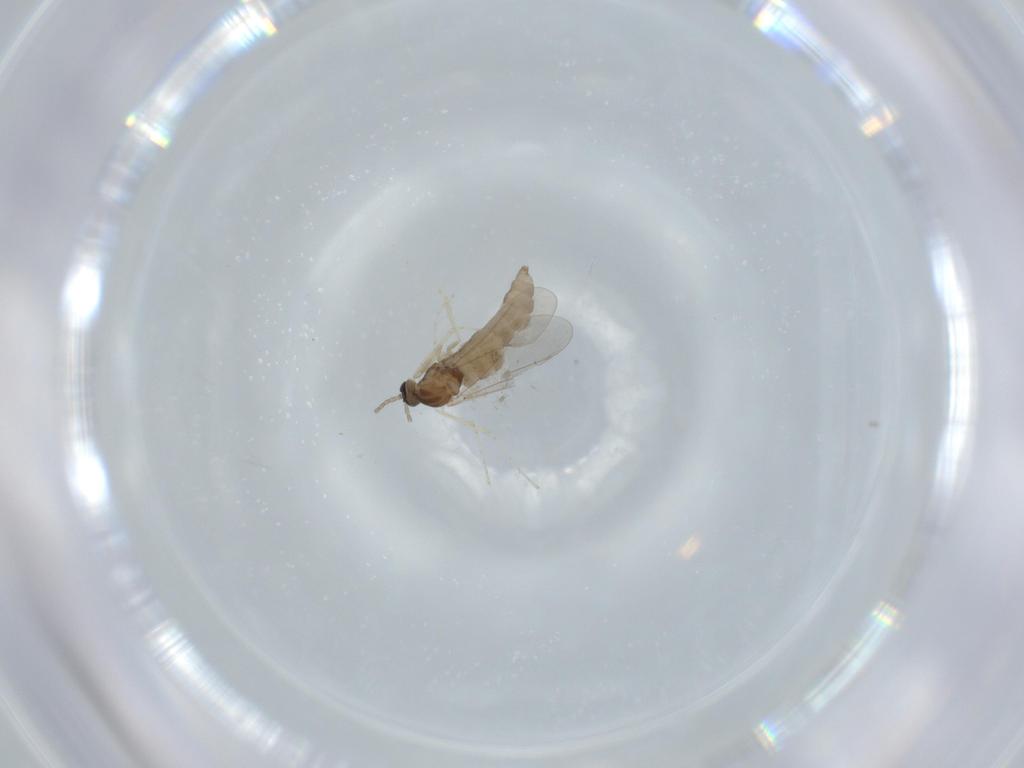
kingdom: Animalia
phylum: Arthropoda
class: Insecta
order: Diptera
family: Cecidomyiidae
